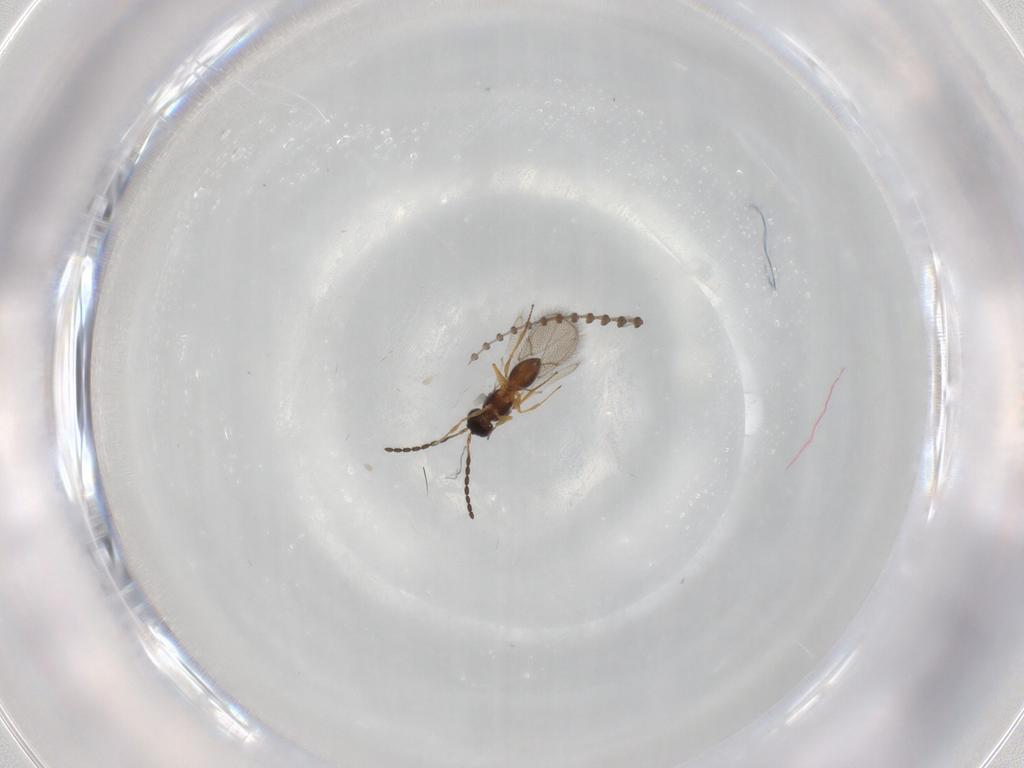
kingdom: Animalia
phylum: Arthropoda
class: Insecta
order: Hymenoptera
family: Figitidae
